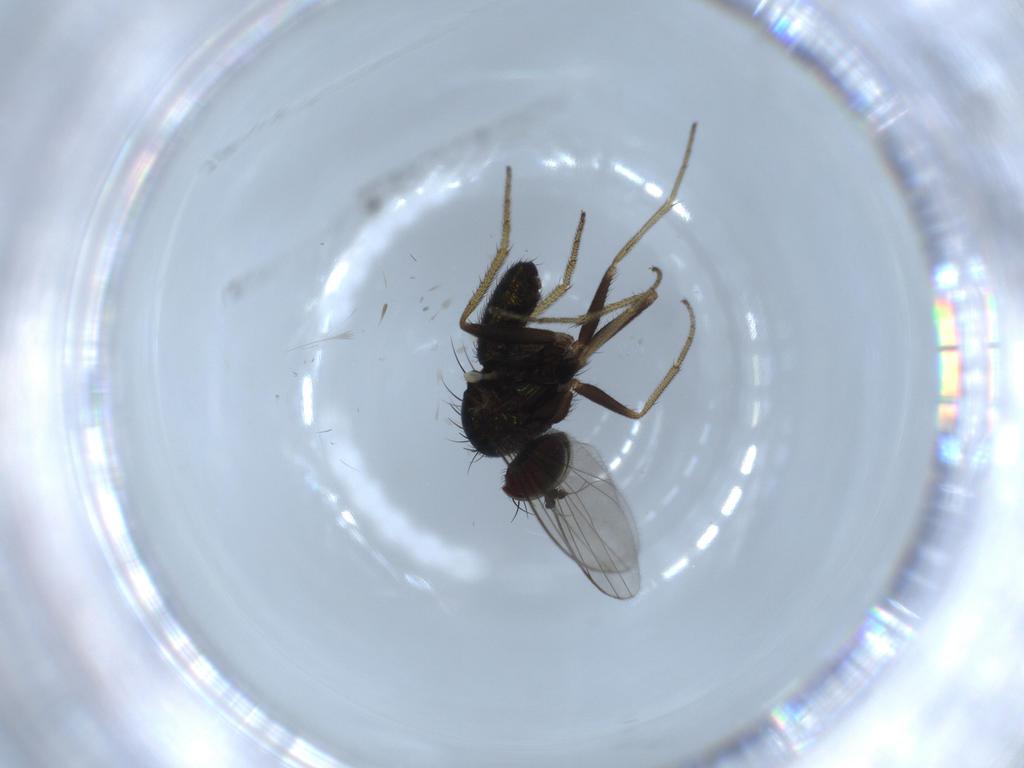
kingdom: Animalia
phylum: Arthropoda
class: Insecta
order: Diptera
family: Dolichopodidae
